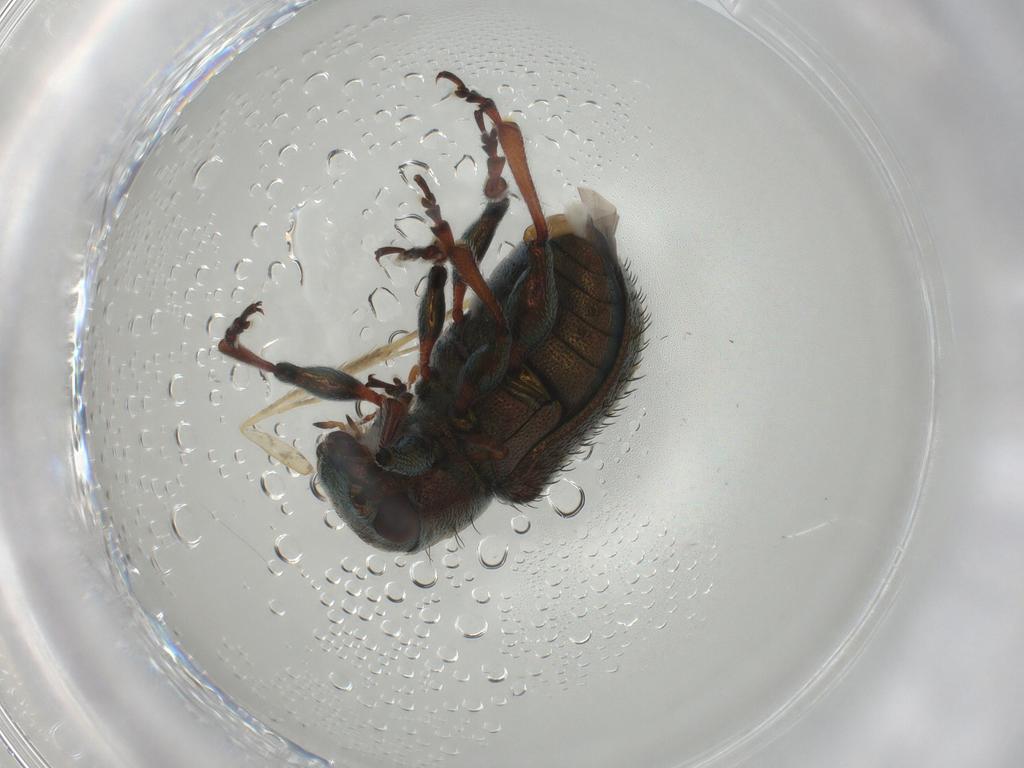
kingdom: Animalia
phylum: Arthropoda
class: Insecta
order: Coleoptera
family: Chrysomelidae
